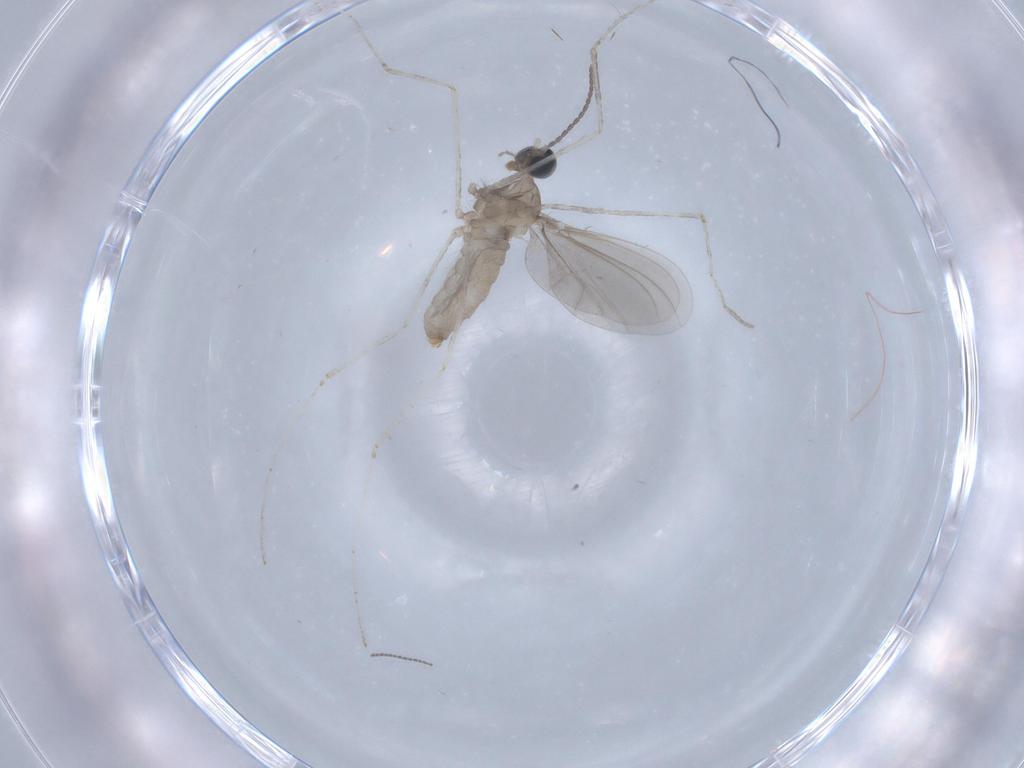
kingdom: Animalia
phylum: Arthropoda
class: Insecta
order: Diptera
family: Cecidomyiidae
